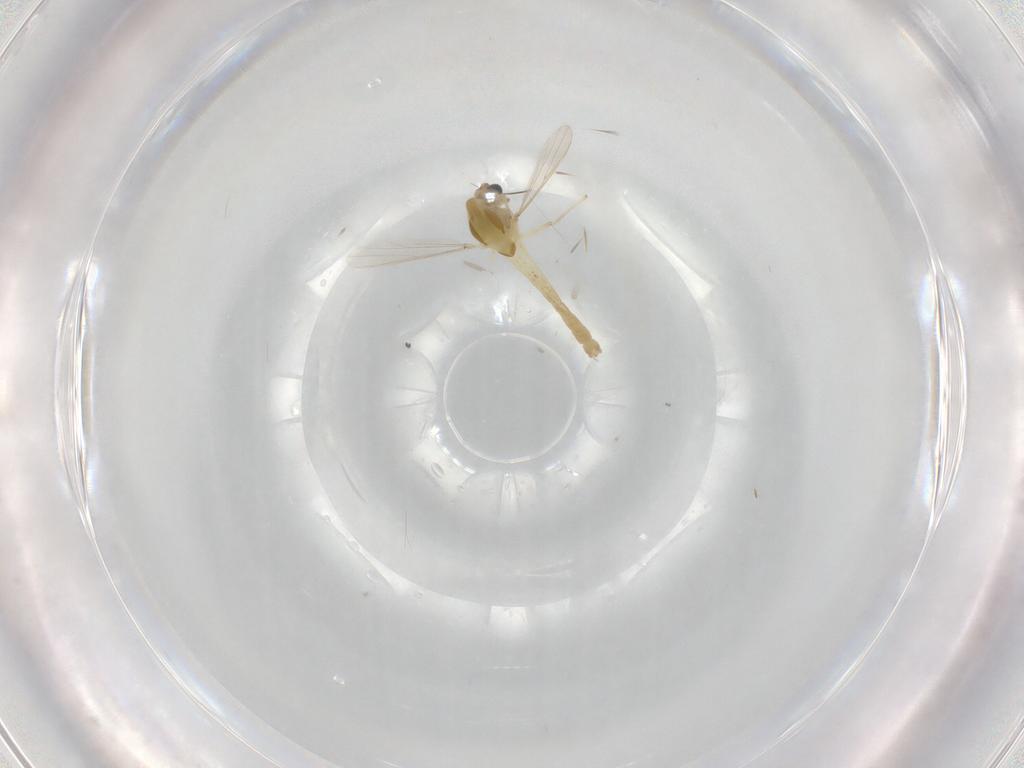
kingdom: Animalia
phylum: Arthropoda
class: Insecta
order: Diptera
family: Chironomidae
